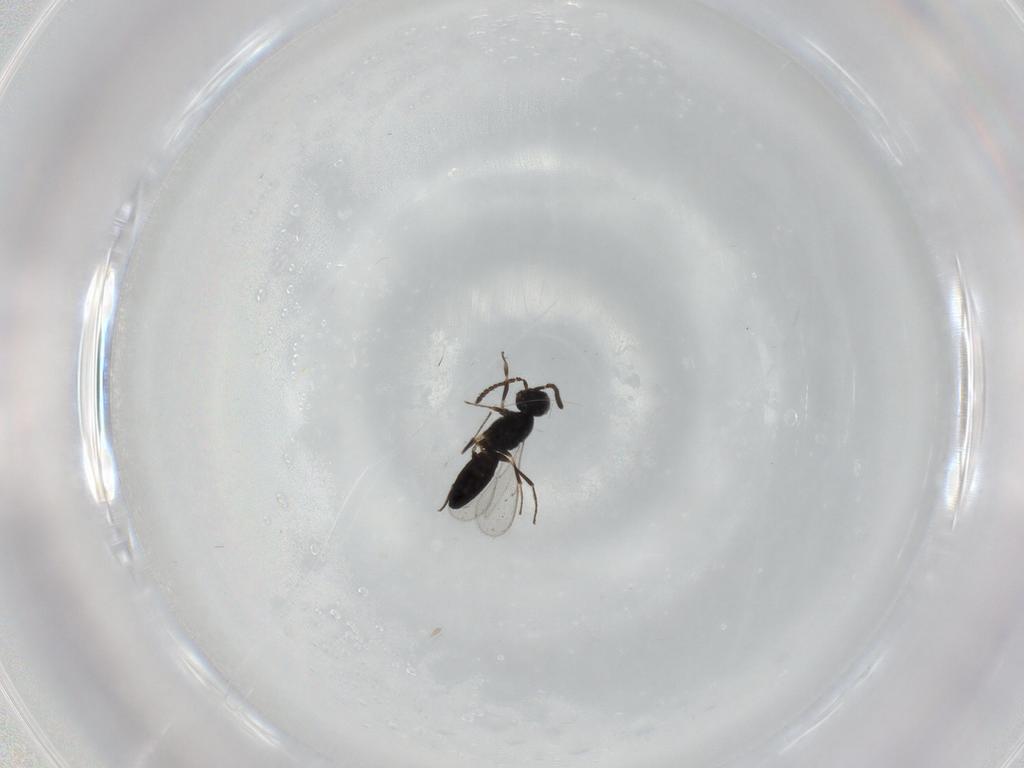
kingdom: Animalia
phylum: Arthropoda
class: Insecta
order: Hymenoptera
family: Scelionidae
